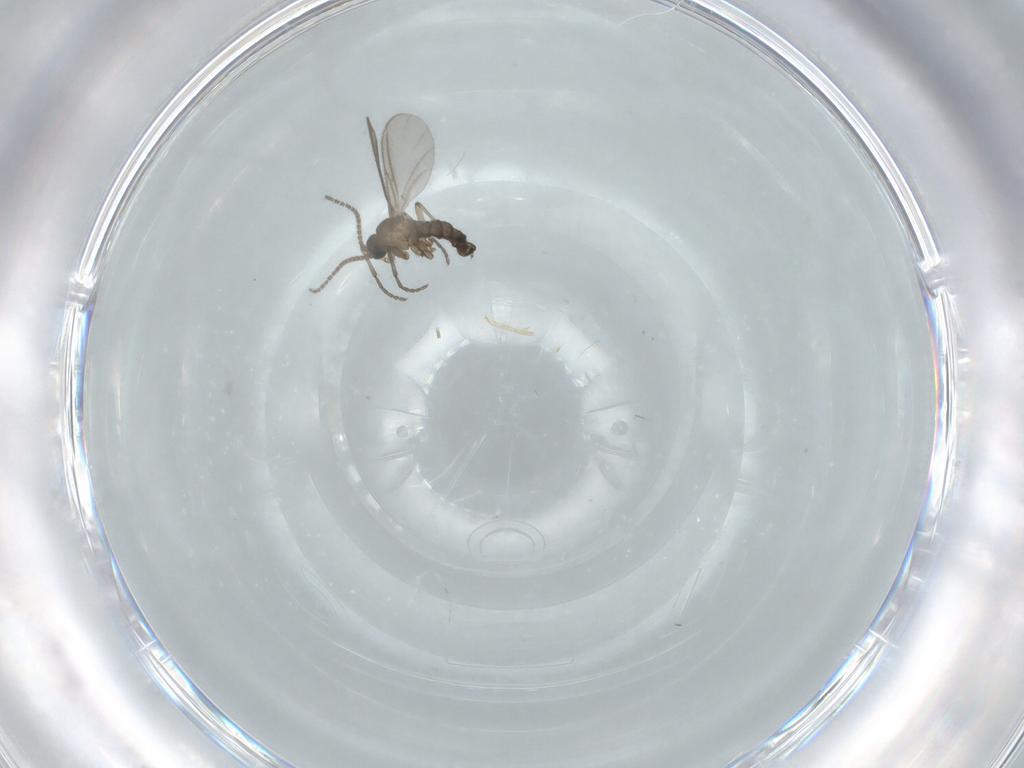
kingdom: Animalia
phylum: Arthropoda
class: Insecta
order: Diptera
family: Sciaridae
